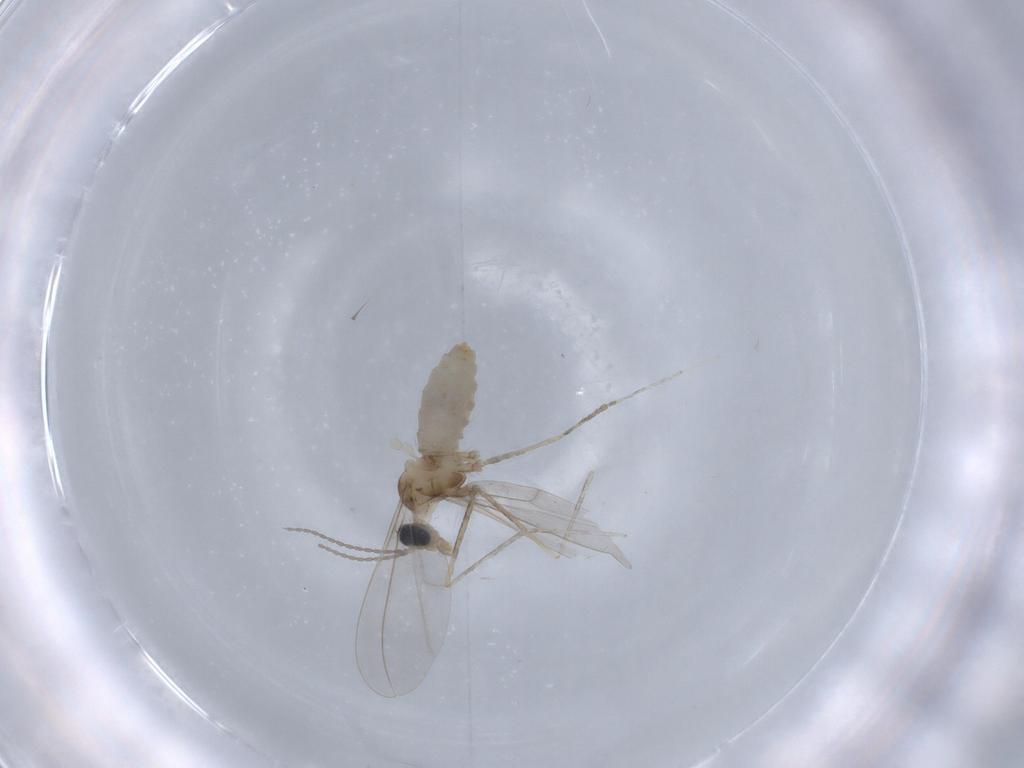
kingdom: Animalia
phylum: Arthropoda
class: Insecta
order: Diptera
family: Cecidomyiidae
